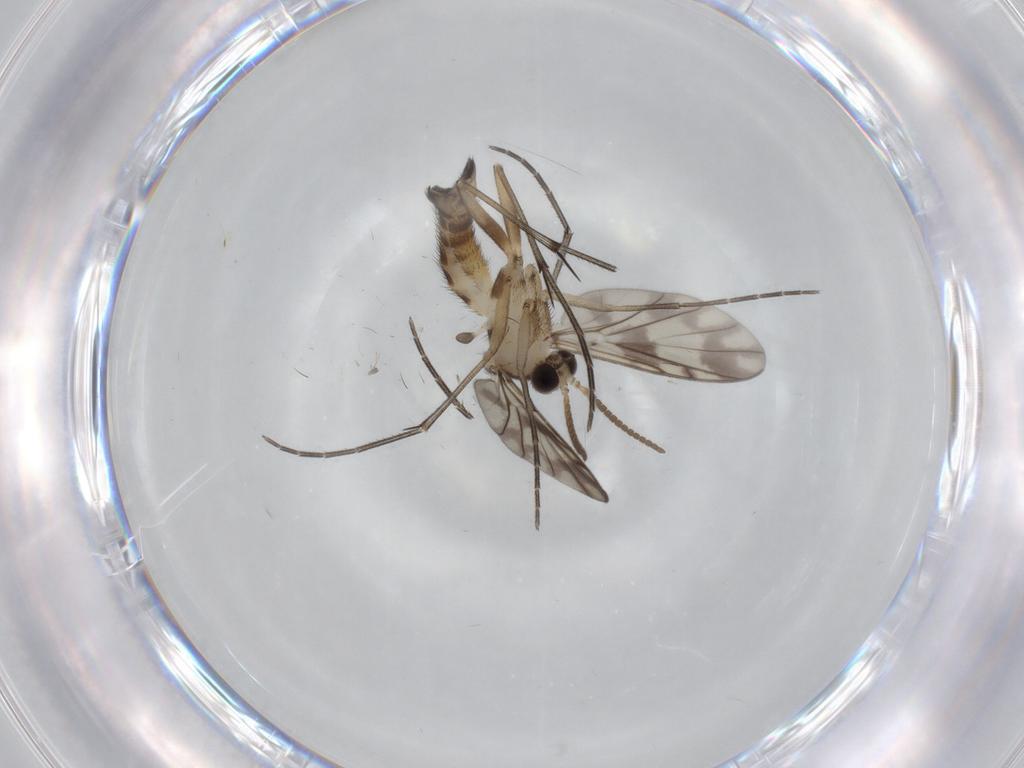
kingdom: Animalia
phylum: Arthropoda
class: Insecta
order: Diptera
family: Keroplatidae
